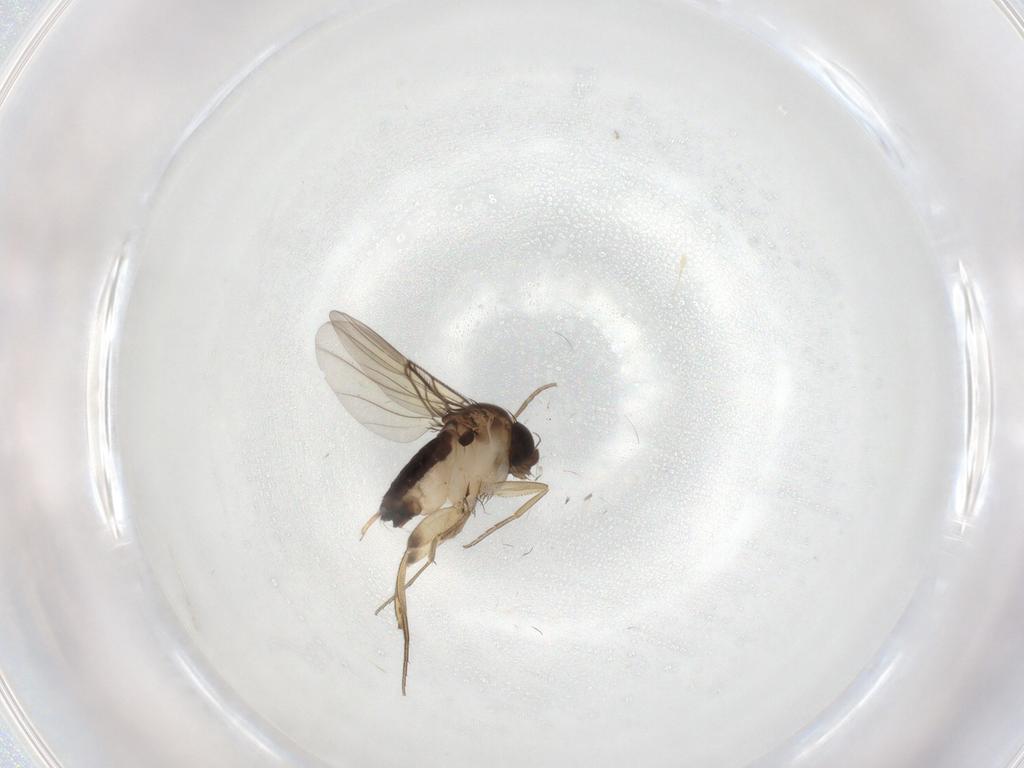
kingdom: Animalia
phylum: Arthropoda
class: Insecta
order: Diptera
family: Phoridae
